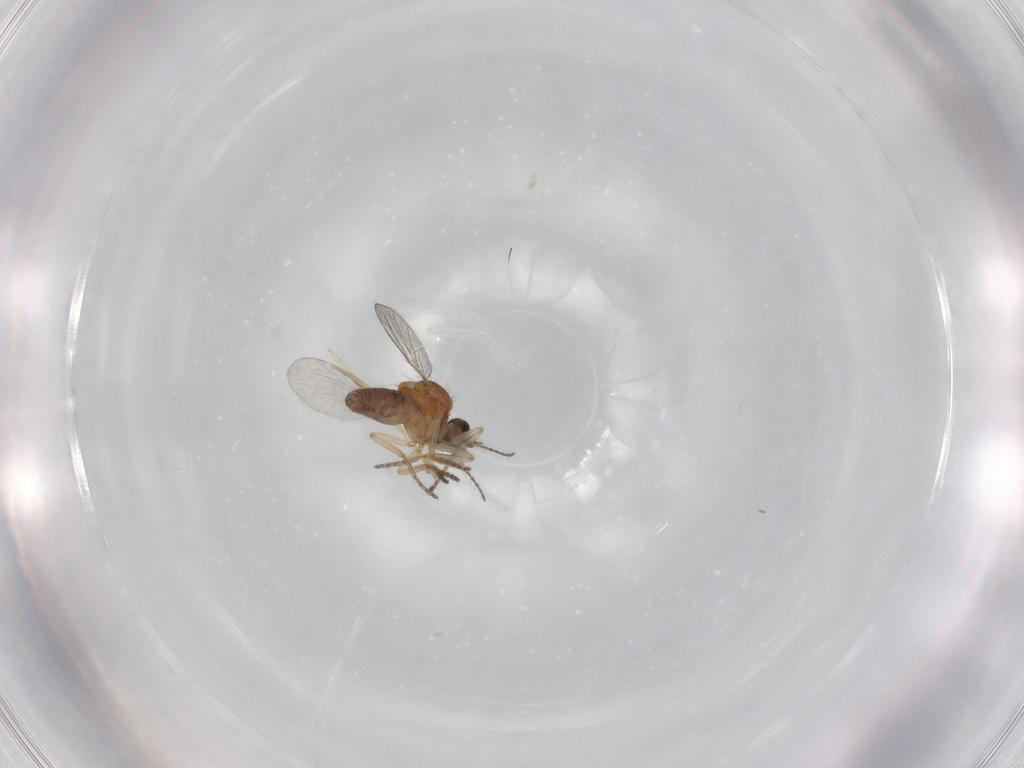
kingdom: Animalia
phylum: Arthropoda
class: Insecta
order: Diptera
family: Ceratopogonidae
